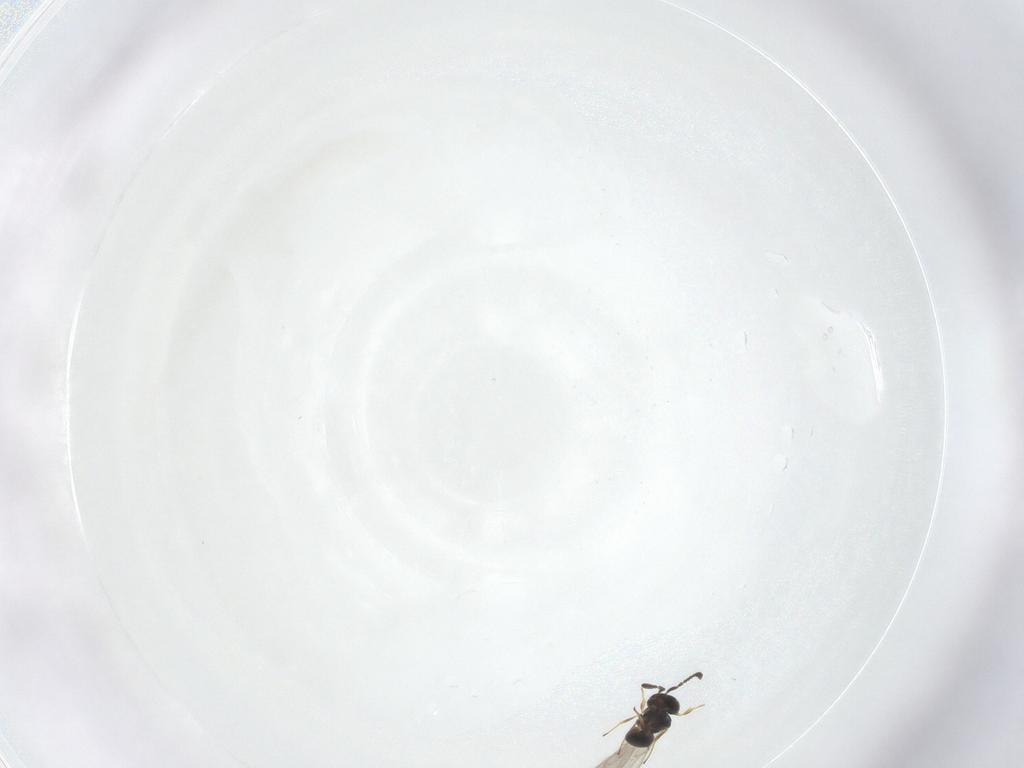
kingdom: Animalia
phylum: Arthropoda
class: Insecta
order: Hymenoptera
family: Scelionidae
